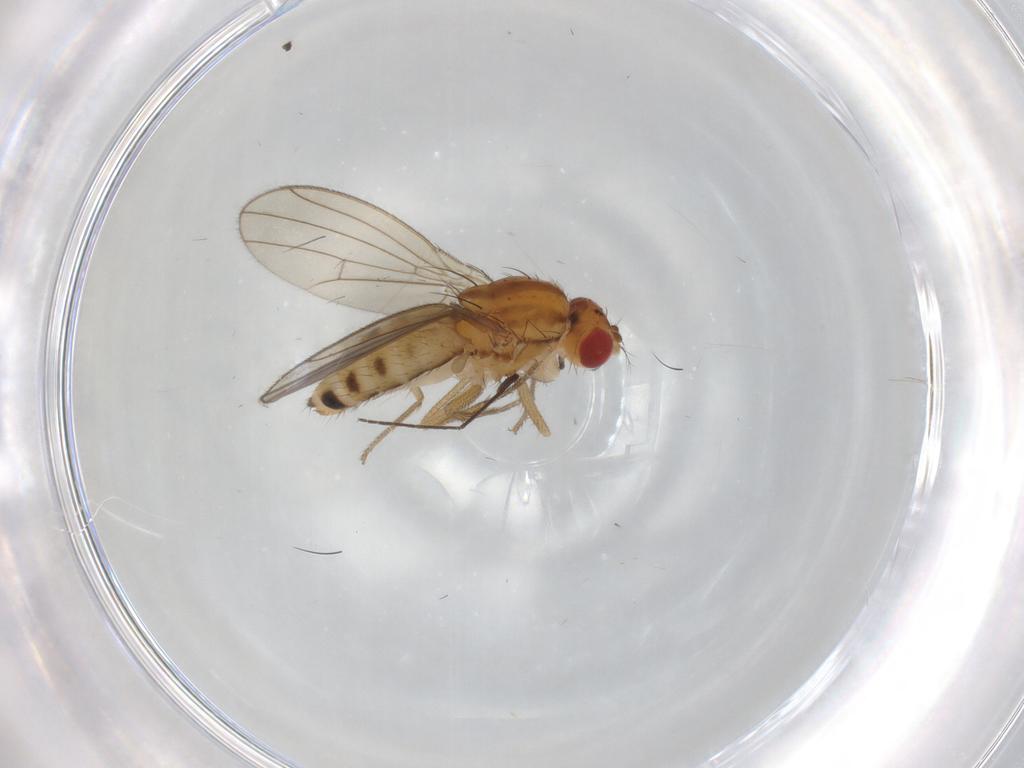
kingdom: Animalia
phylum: Arthropoda
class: Insecta
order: Diptera
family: Drosophilidae
